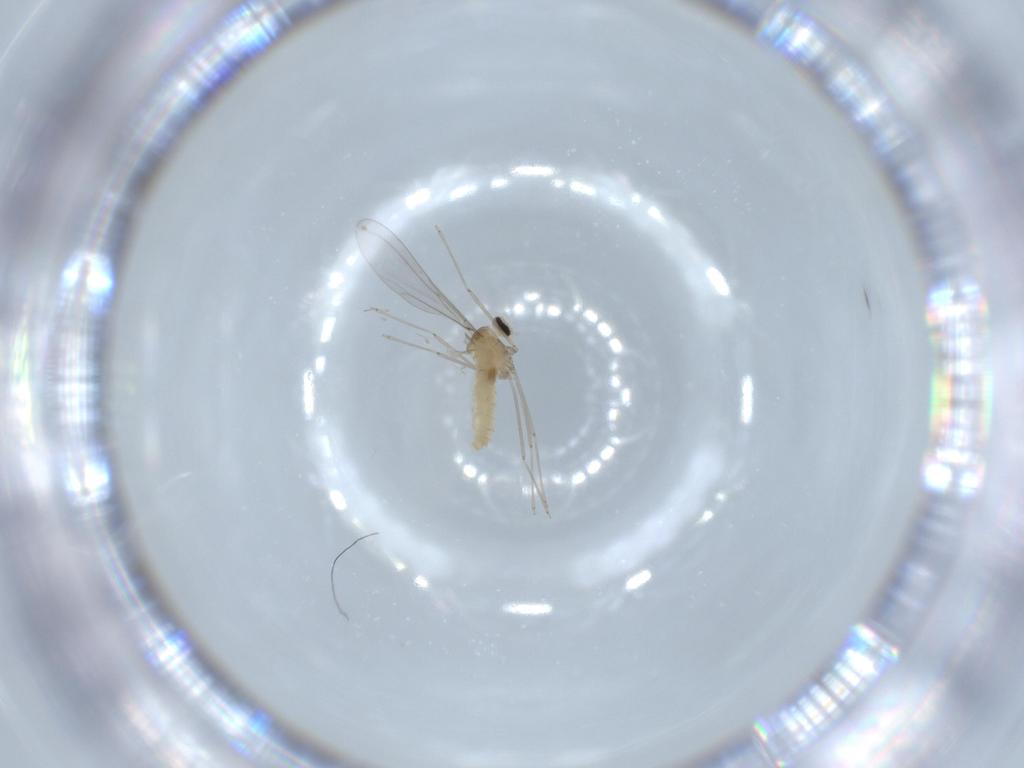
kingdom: Animalia
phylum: Arthropoda
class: Insecta
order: Diptera
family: Cecidomyiidae
